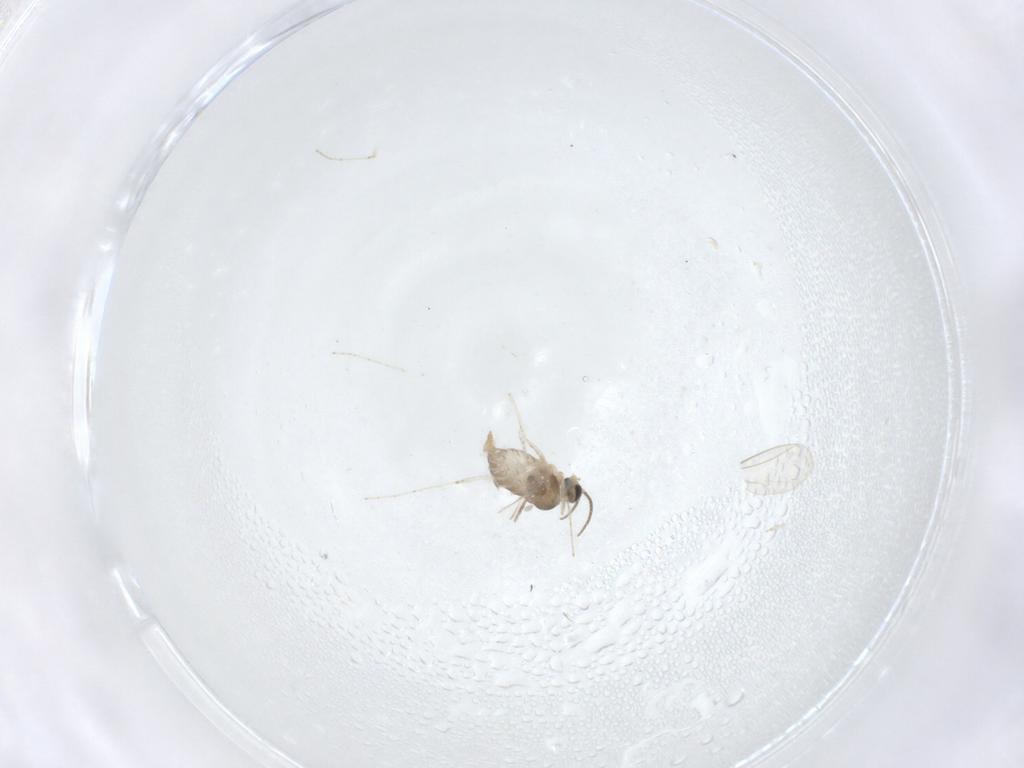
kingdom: Animalia
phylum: Arthropoda
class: Insecta
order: Diptera
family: Cecidomyiidae
